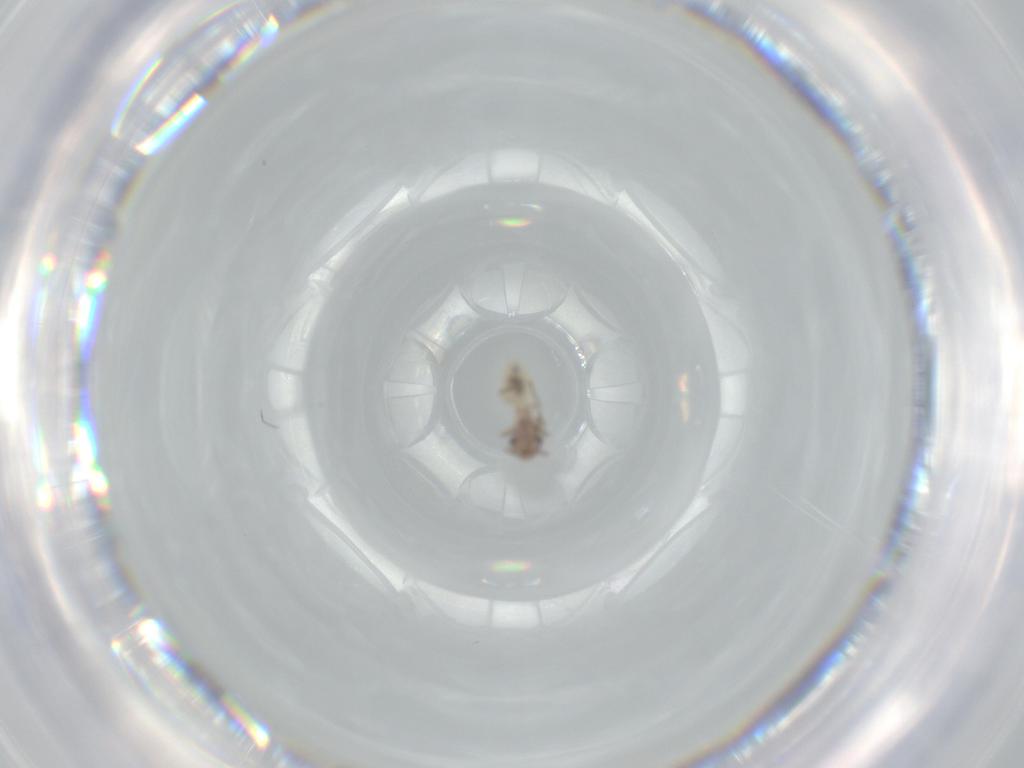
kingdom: Animalia
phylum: Arthropoda
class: Insecta
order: Psocodea
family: Lepidopsocidae
